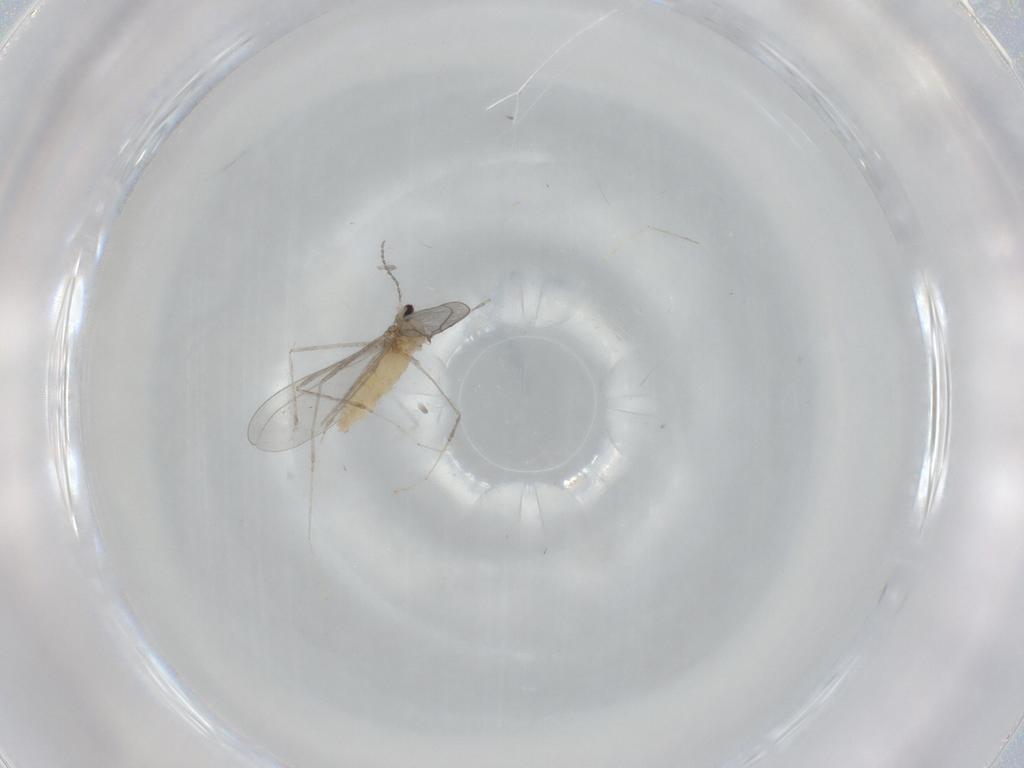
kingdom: Animalia
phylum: Arthropoda
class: Insecta
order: Diptera
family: Cecidomyiidae
